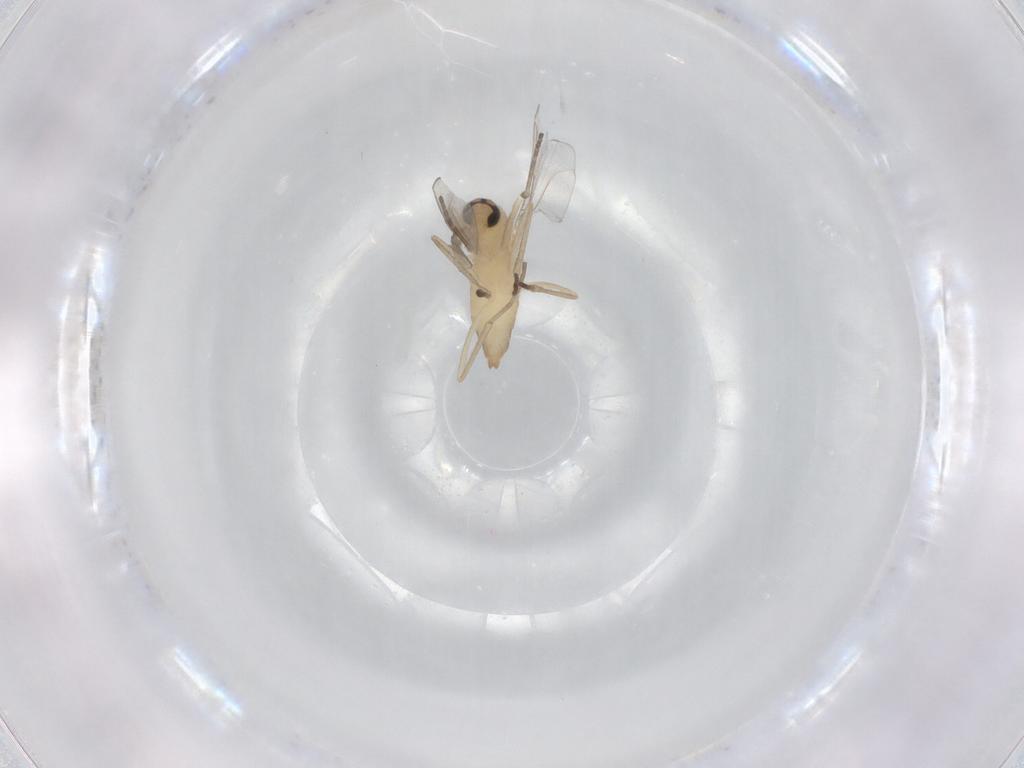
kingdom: Animalia
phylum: Arthropoda
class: Insecta
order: Diptera
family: Cecidomyiidae
